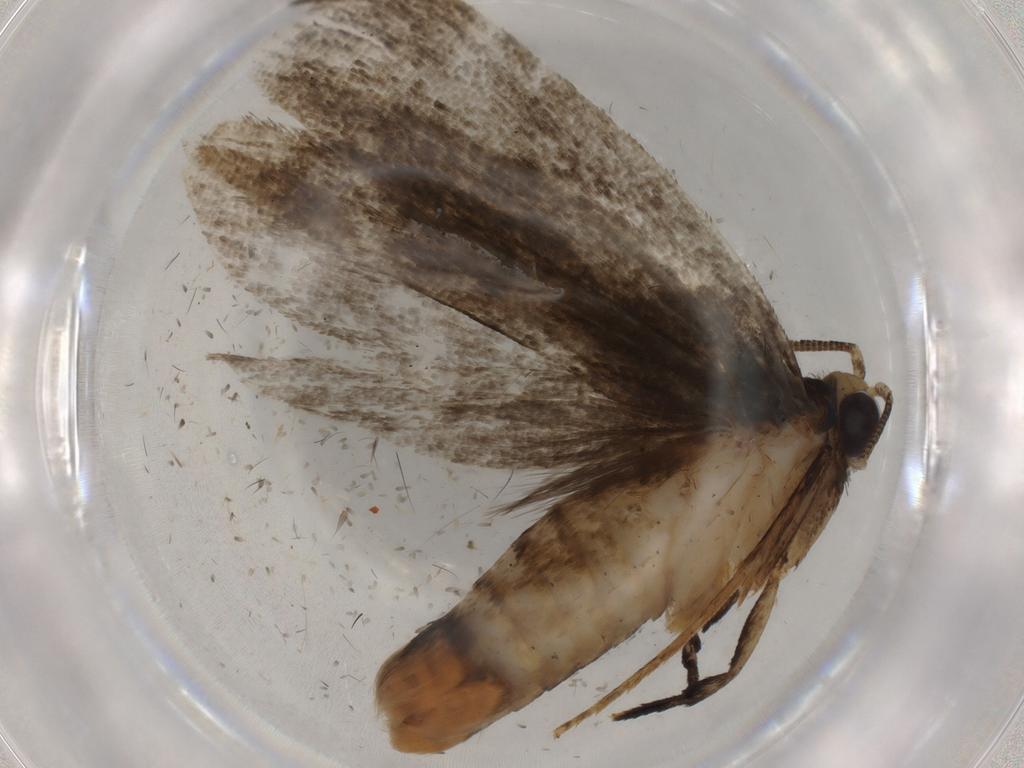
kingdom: Animalia
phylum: Arthropoda
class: Insecta
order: Lepidoptera
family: Tineidae
